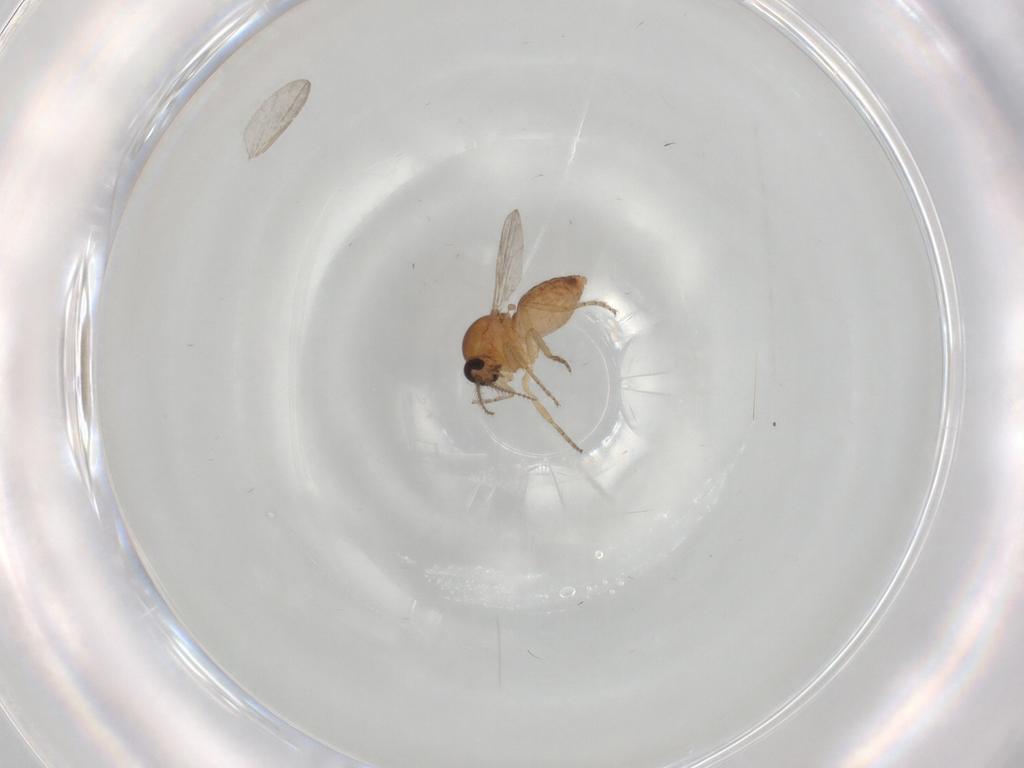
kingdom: Animalia
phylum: Arthropoda
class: Insecta
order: Diptera
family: Ceratopogonidae
